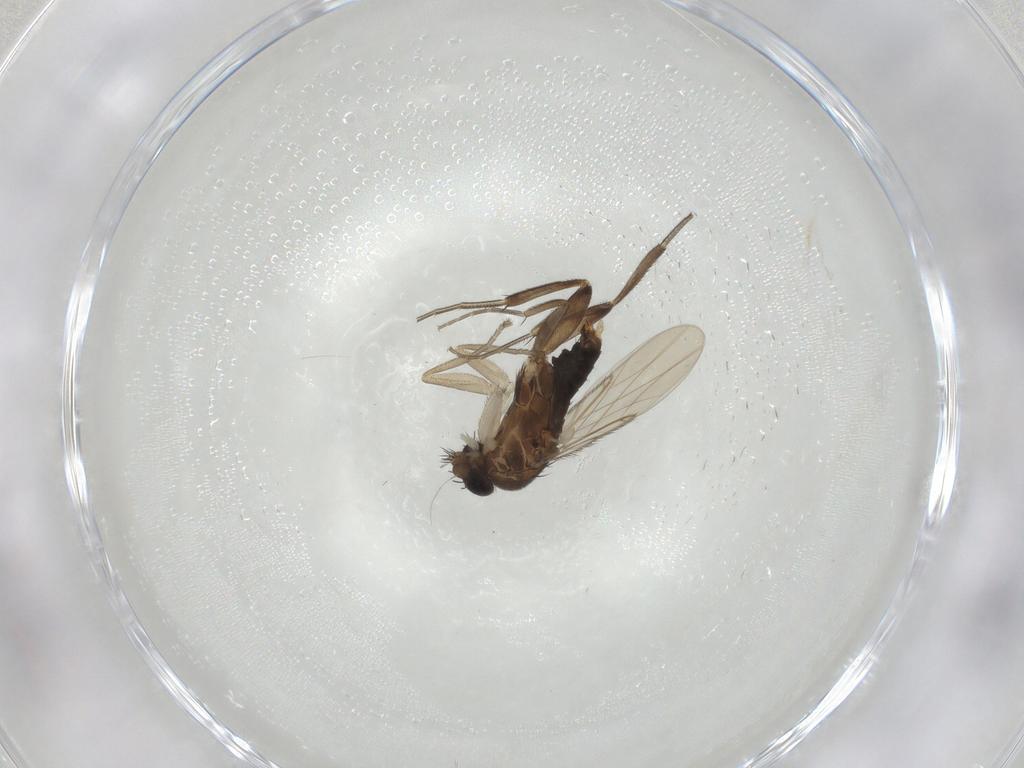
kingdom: Animalia
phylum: Arthropoda
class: Insecta
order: Diptera
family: Phoridae
